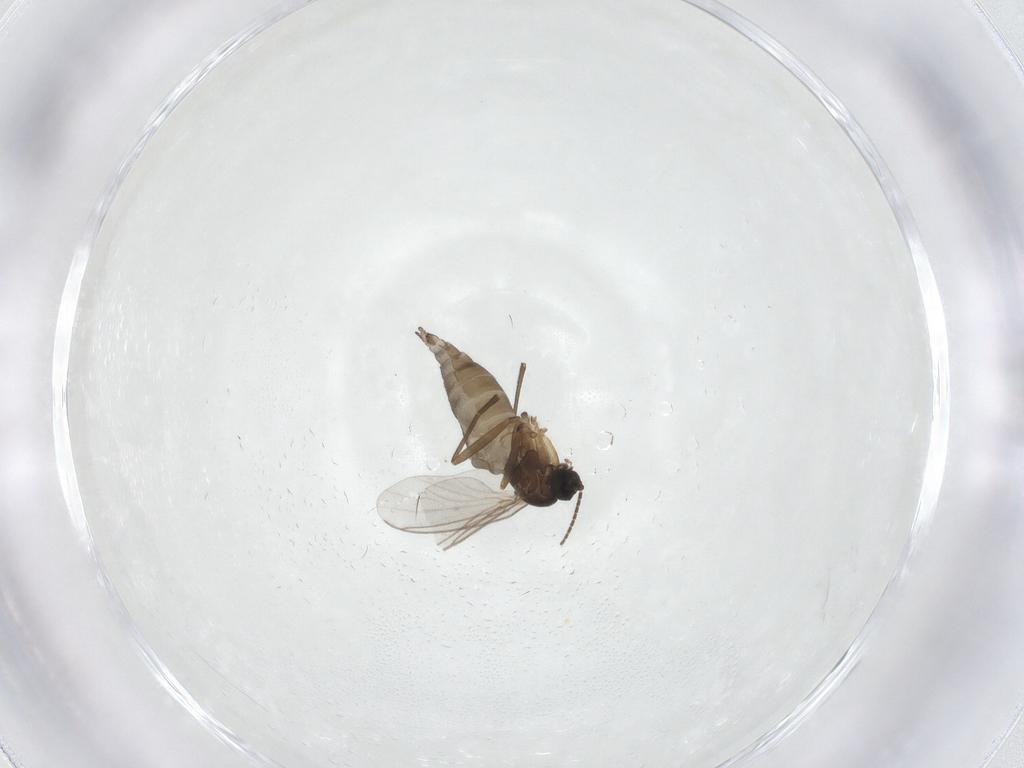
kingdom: Animalia
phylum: Arthropoda
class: Insecta
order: Diptera
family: Sciaridae
